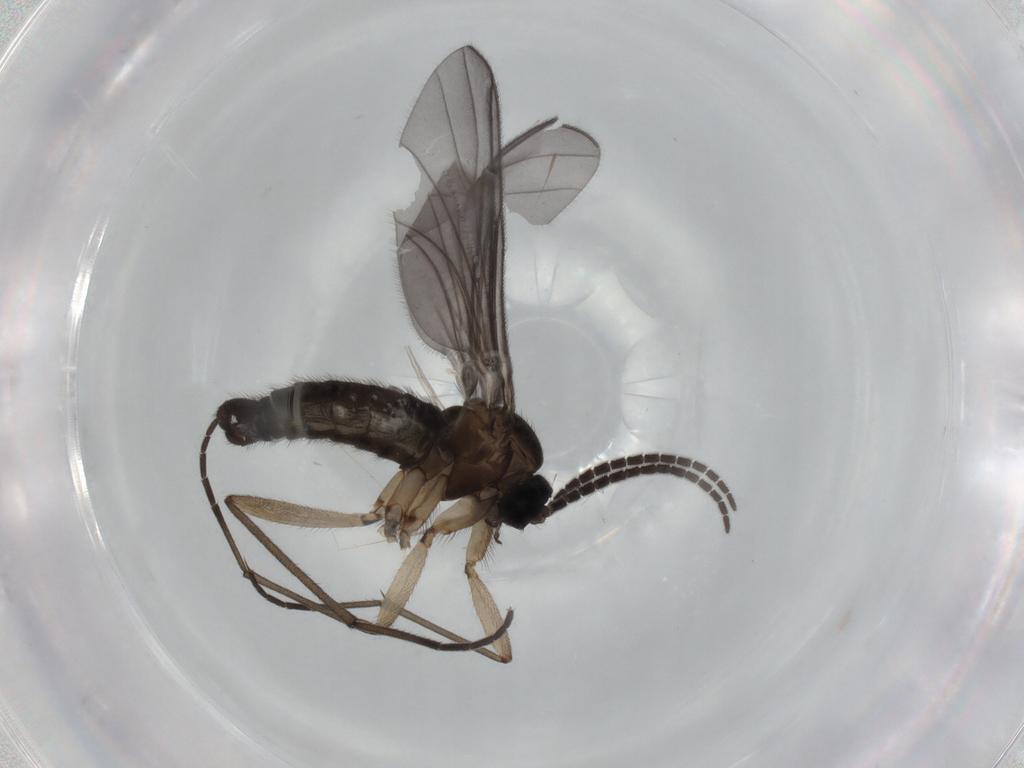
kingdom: Animalia
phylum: Arthropoda
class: Insecta
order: Diptera
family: Sciaridae
